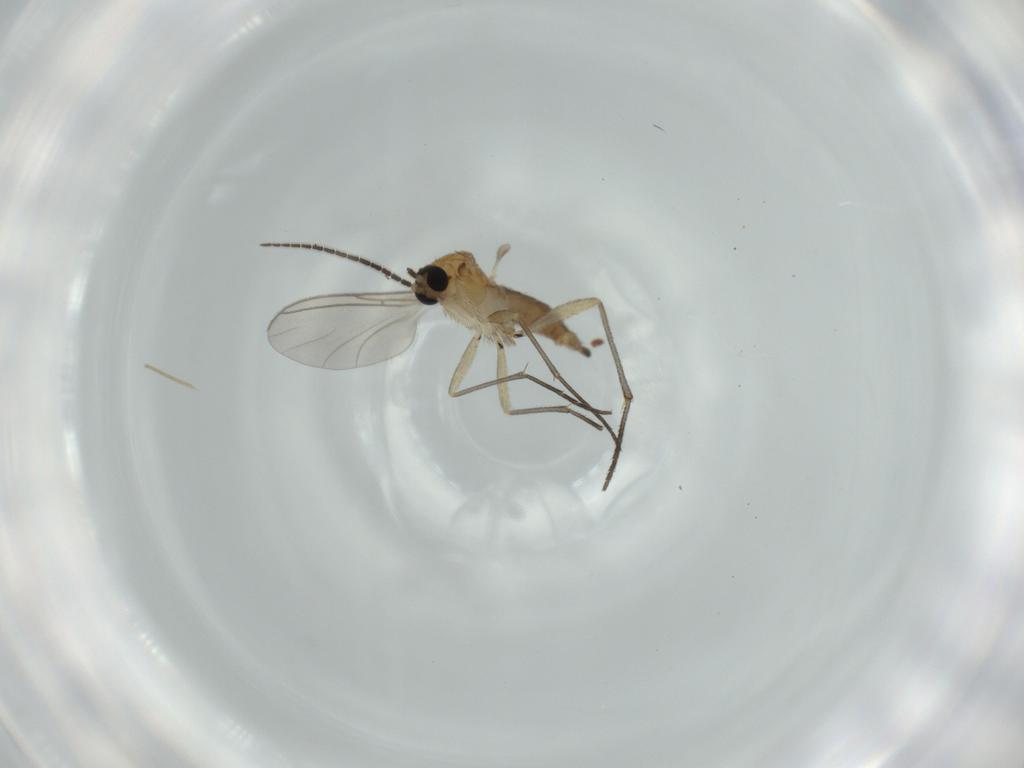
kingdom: Animalia
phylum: Arthropoda
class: Insecta
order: Diptera
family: Sciaridae
